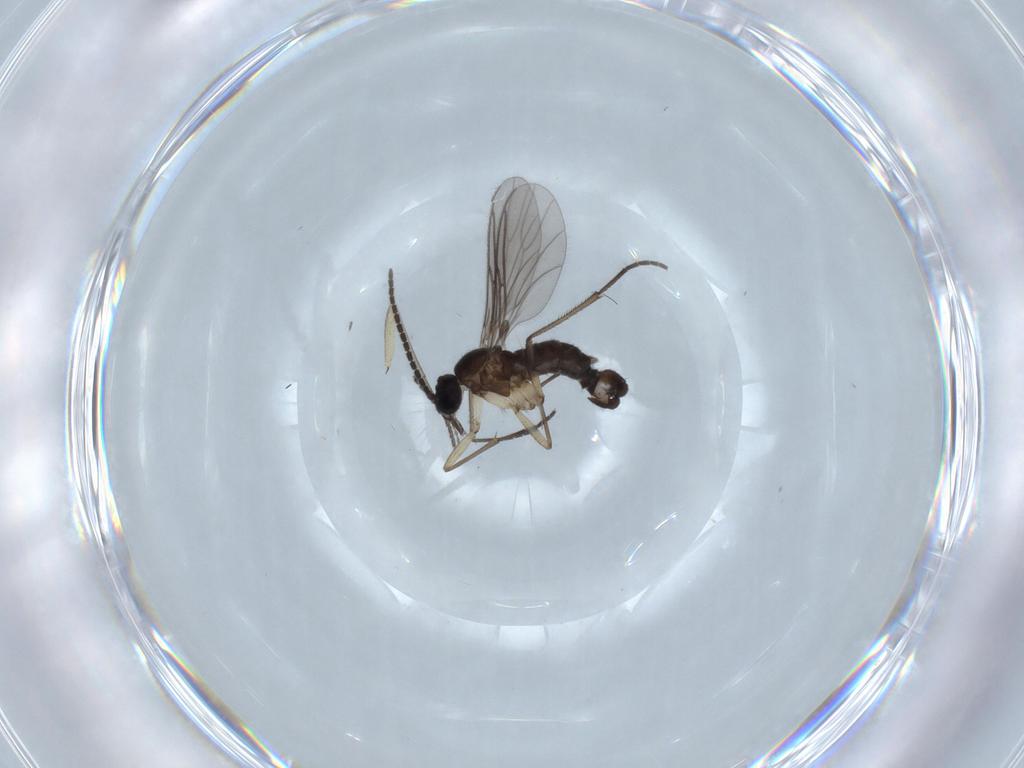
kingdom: Animalia
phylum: Arthropoda
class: Insecta
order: Diptera
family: Sciaridae
